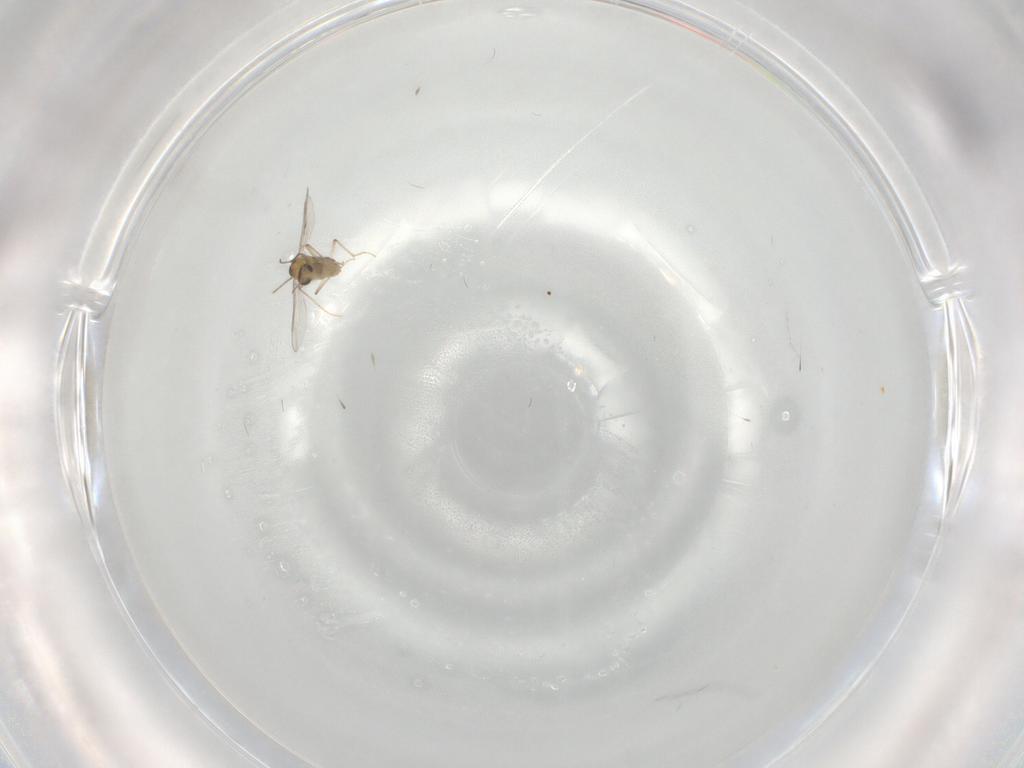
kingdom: Animalia
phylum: Arthropoda
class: Insecta
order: Diptera
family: Chironomidae
